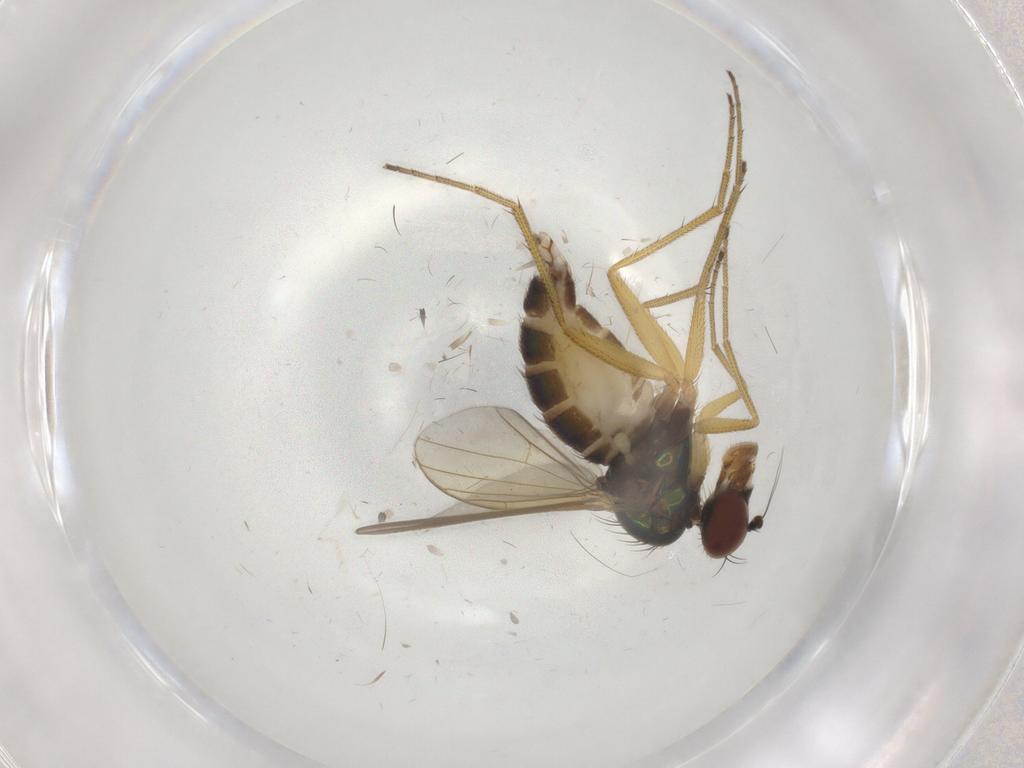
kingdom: Animalia
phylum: Arthropoda
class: Insecta
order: Diptera
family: Dolichopodidae
